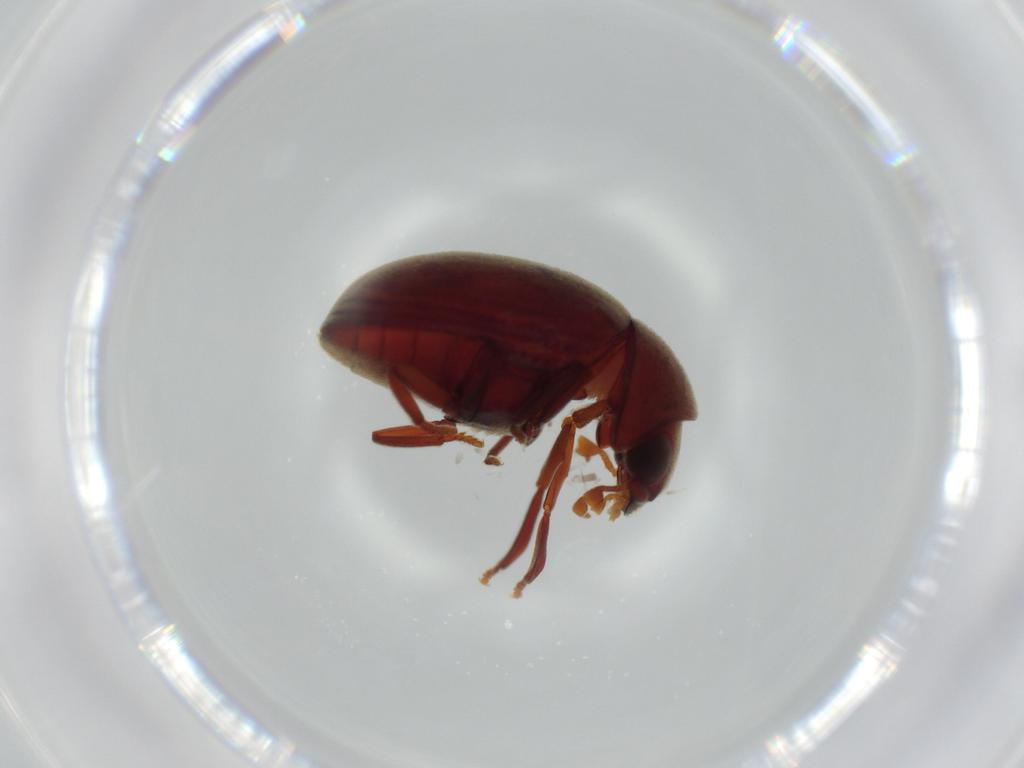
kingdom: Animalia
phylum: Arthropoda
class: Insecta
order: Coleoptera
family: Ptinidae
